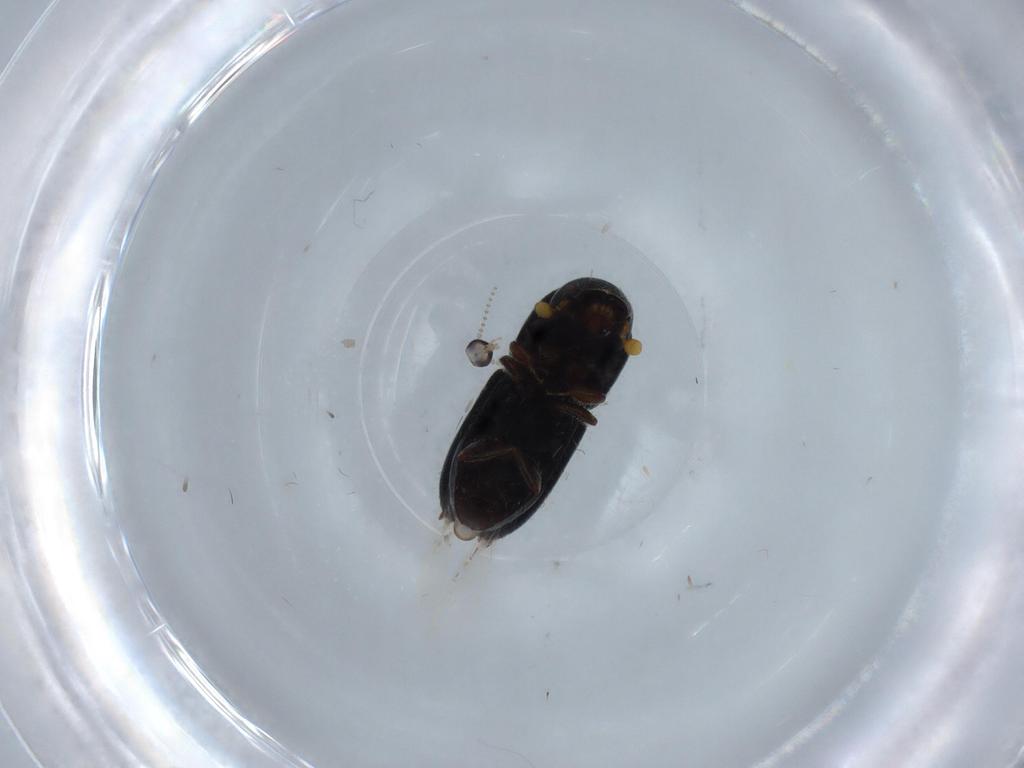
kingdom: Animalia
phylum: Arthropoda
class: Insecta
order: Coleoptera
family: Curculionidae
